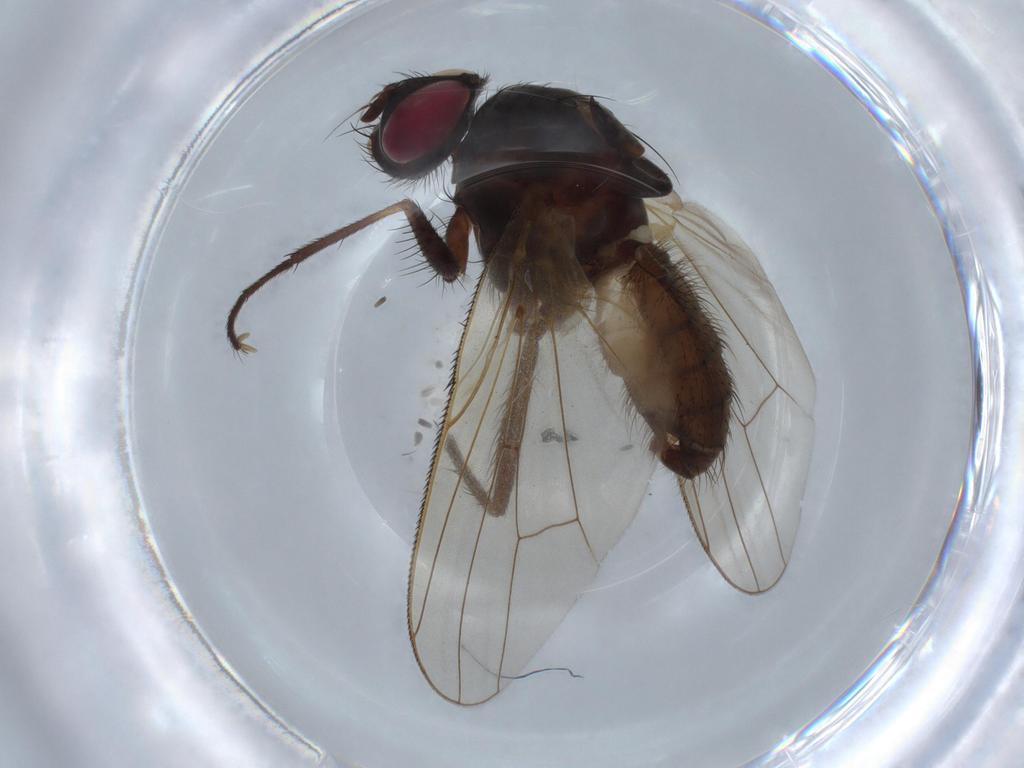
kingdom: Animalia
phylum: Arthropoda
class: Insecta
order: Diptera
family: Anthomyiidae
